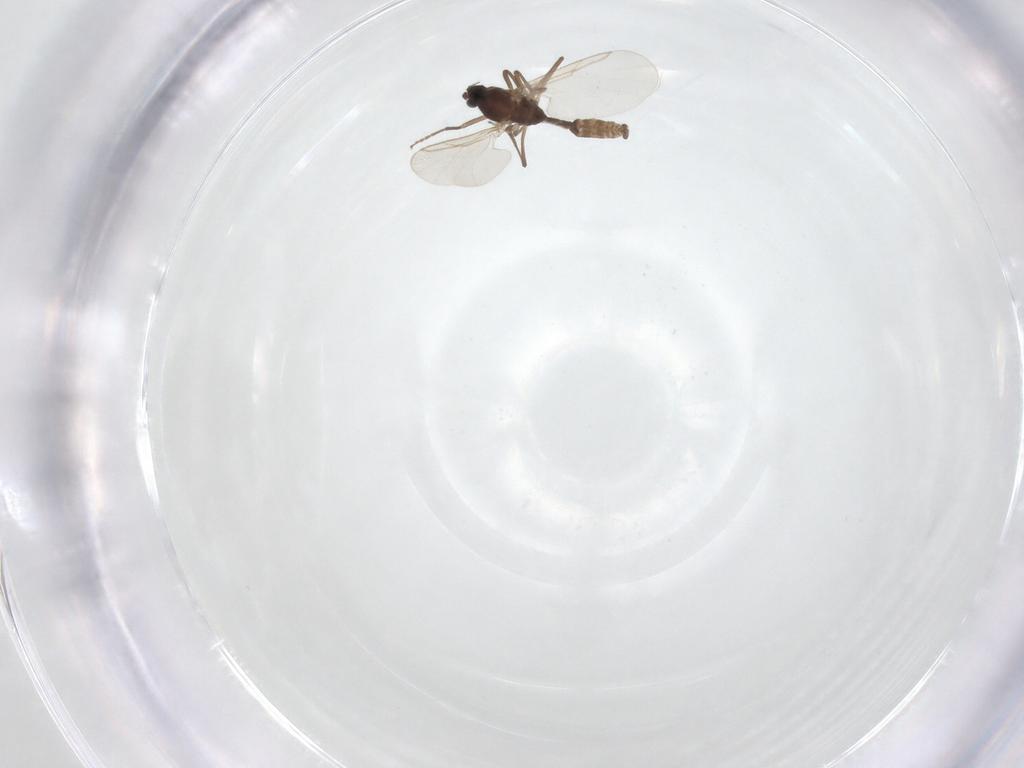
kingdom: Animalia
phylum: Arthropoda
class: Insecta
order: Diptera
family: Cecidomyiidae
